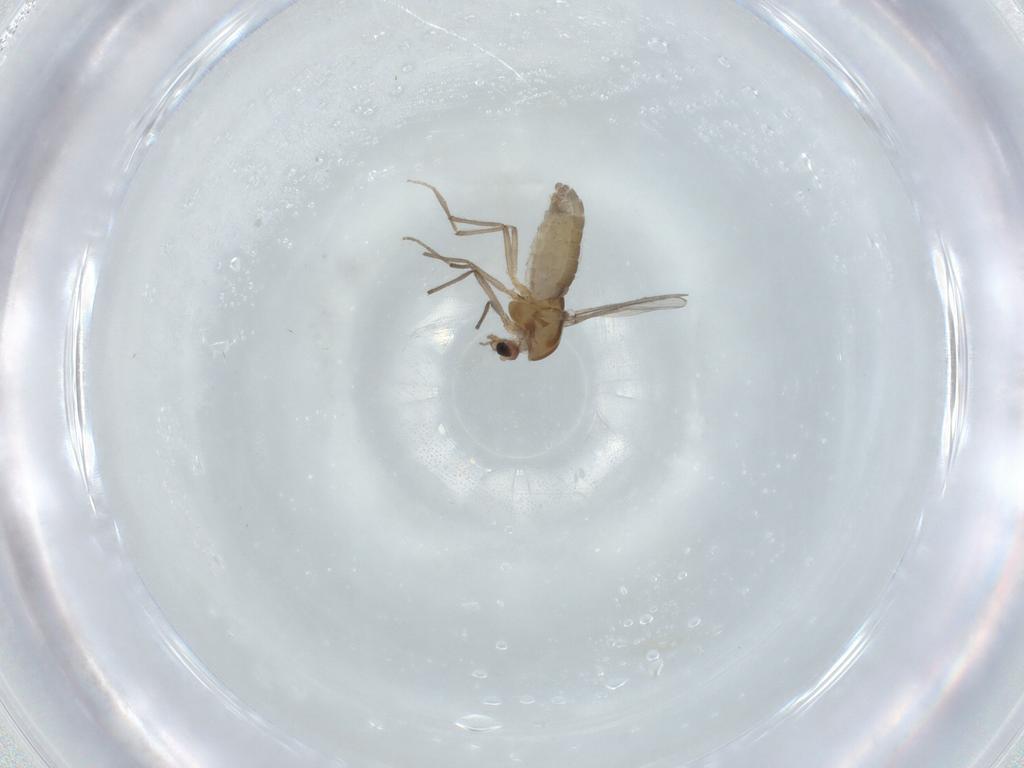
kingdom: Animalia
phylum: Arthropoda
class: Insecta
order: Diptera
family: Chironomidae
